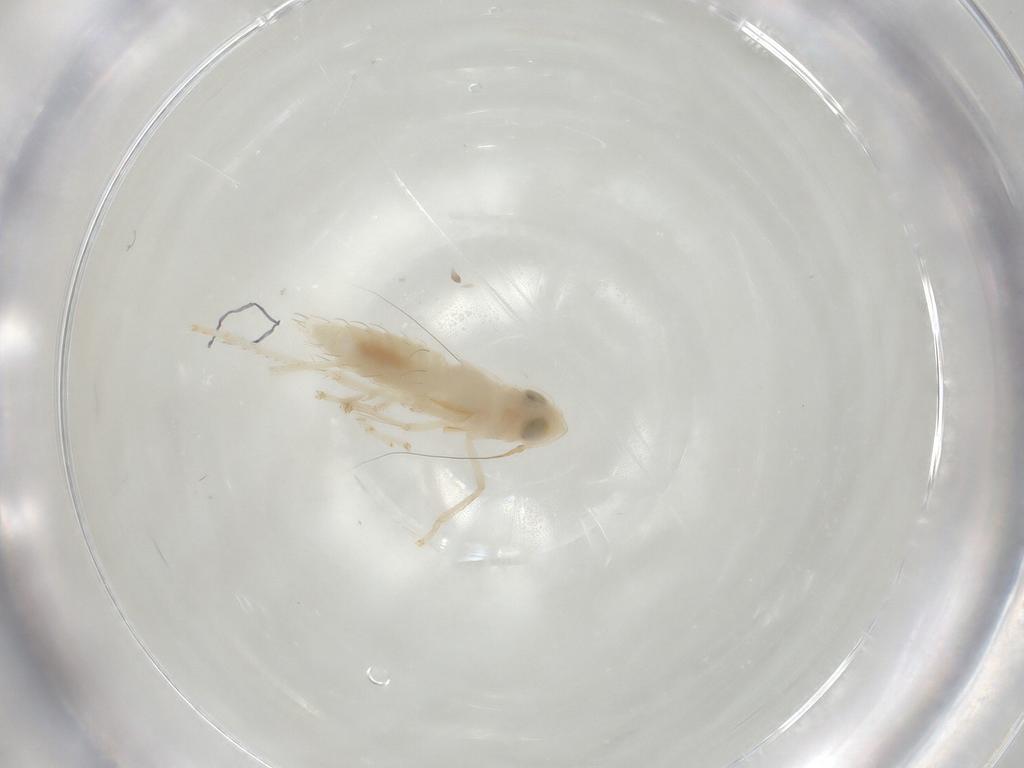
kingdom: Animalia
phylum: Arthropoda
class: Insecta
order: Hemiptera
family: Cicadellidae
